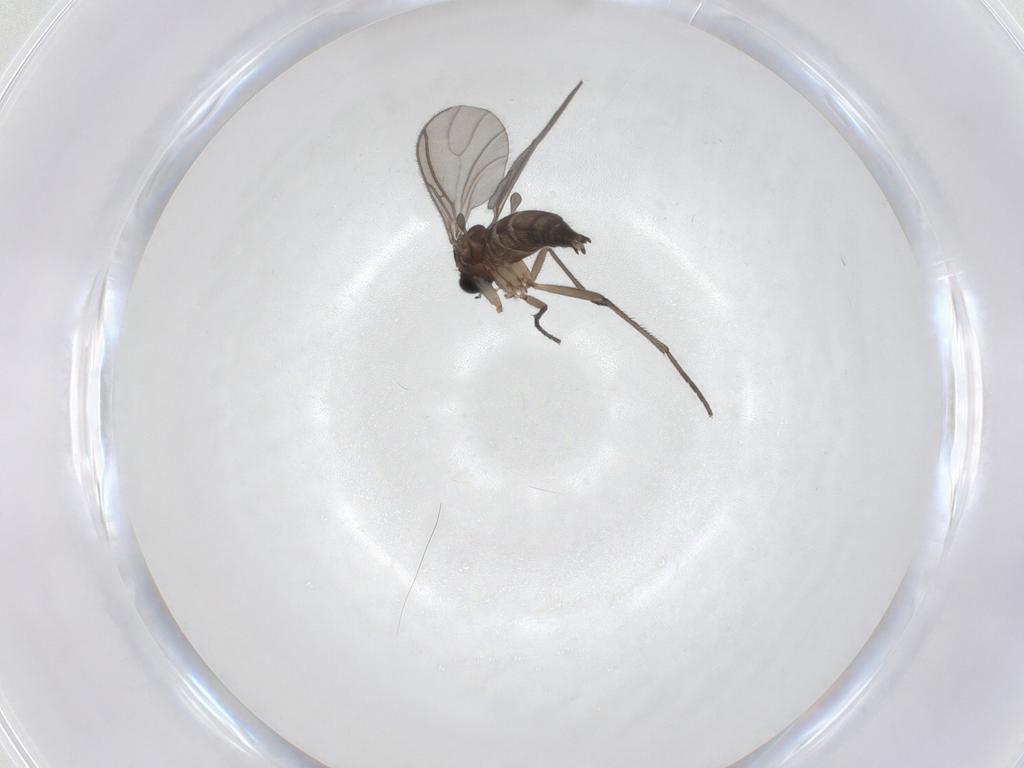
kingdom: Animalia
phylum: Arthropoda
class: Insecta
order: Diptera
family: Sciaridae
